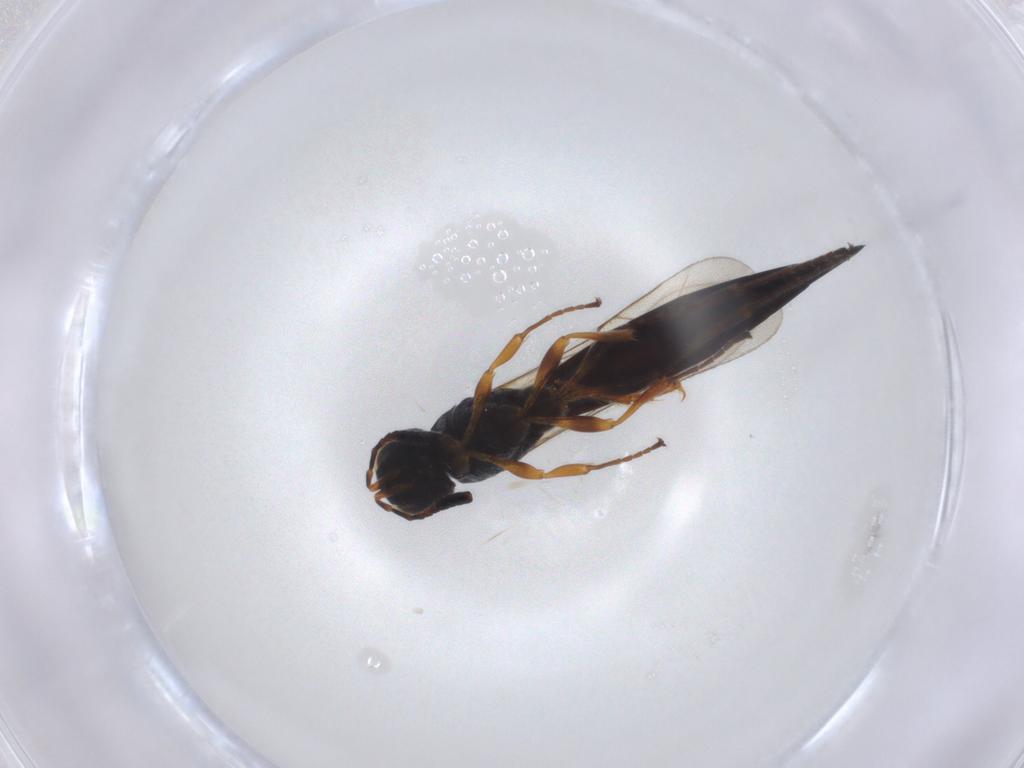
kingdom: Animalia
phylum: Arthropoda
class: Insecta
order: Hymenoptera
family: Scelionidae
